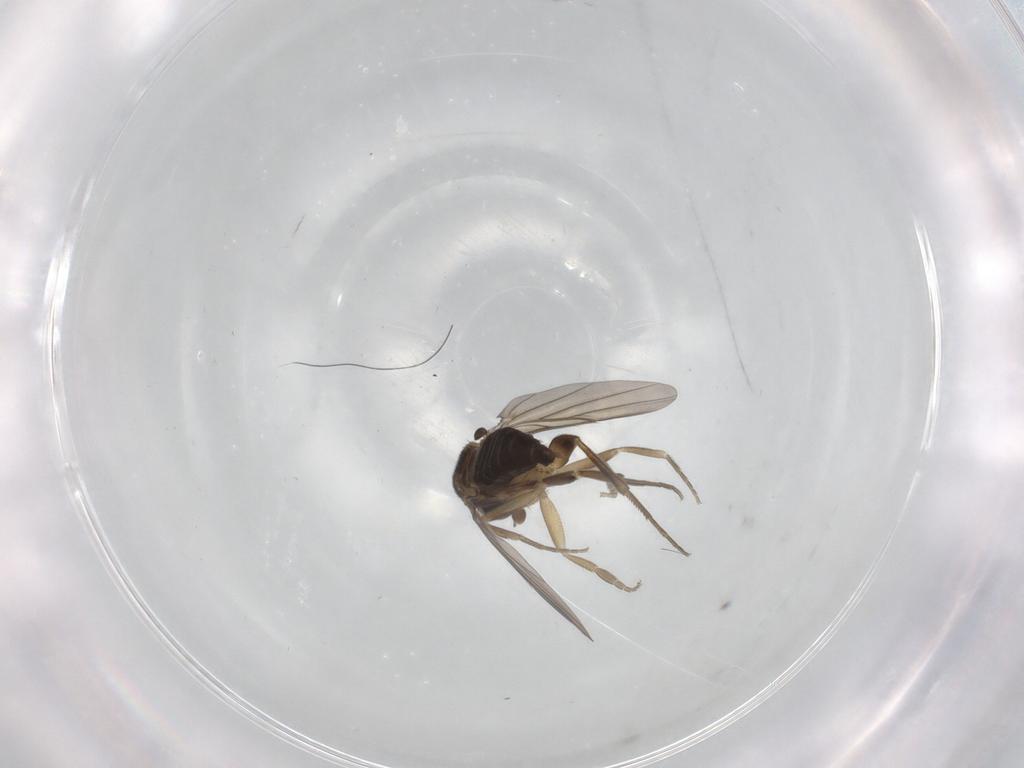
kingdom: Animalia
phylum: Arthropoda
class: Insecta
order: Diptera
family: Phoridae
